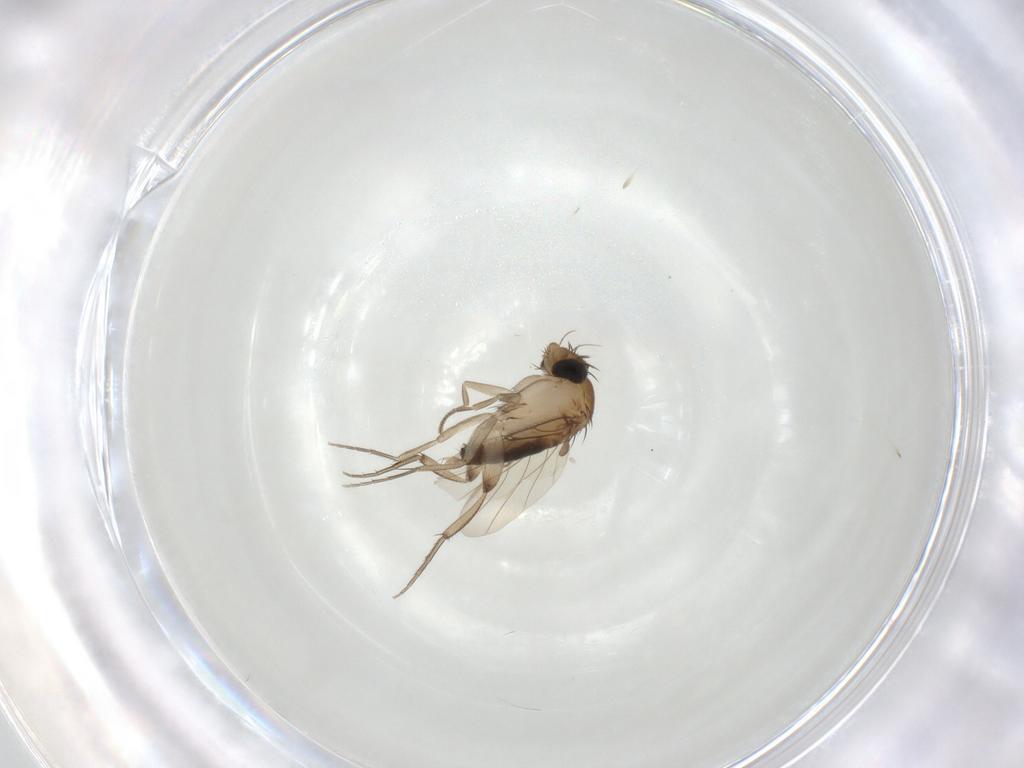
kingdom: Animalia
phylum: Arthropoda
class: Insecta
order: Diptera
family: Phoridae
